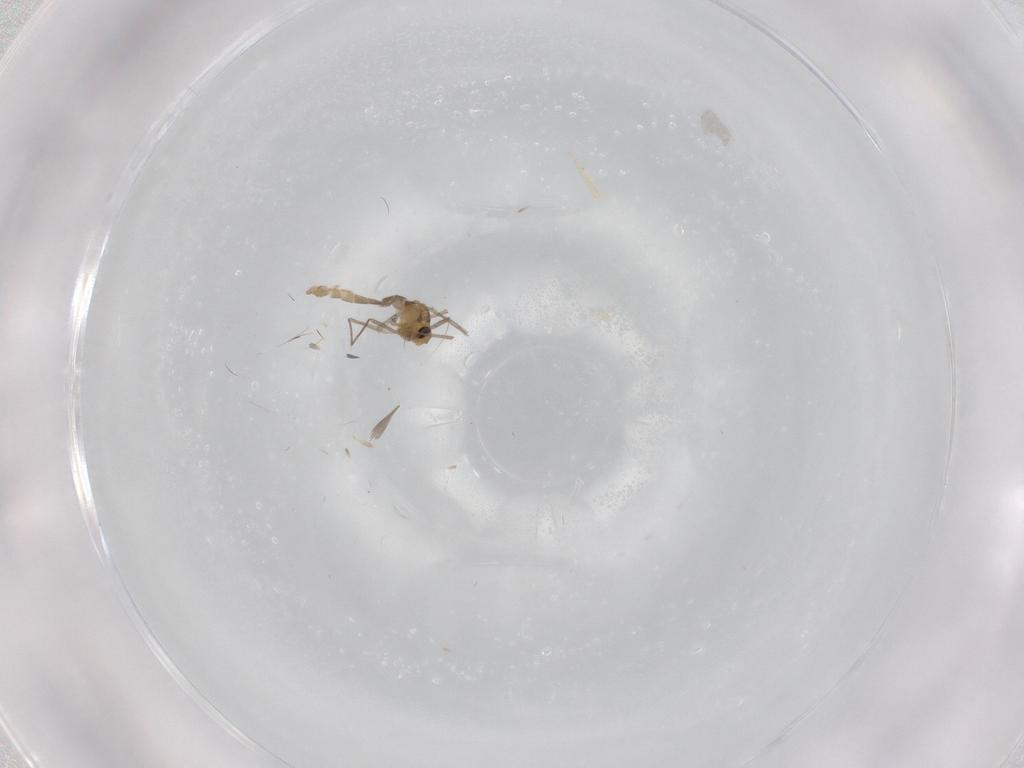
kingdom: Animalia
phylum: Arthropoda
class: Insecta
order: Diptera
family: Chironomidae
